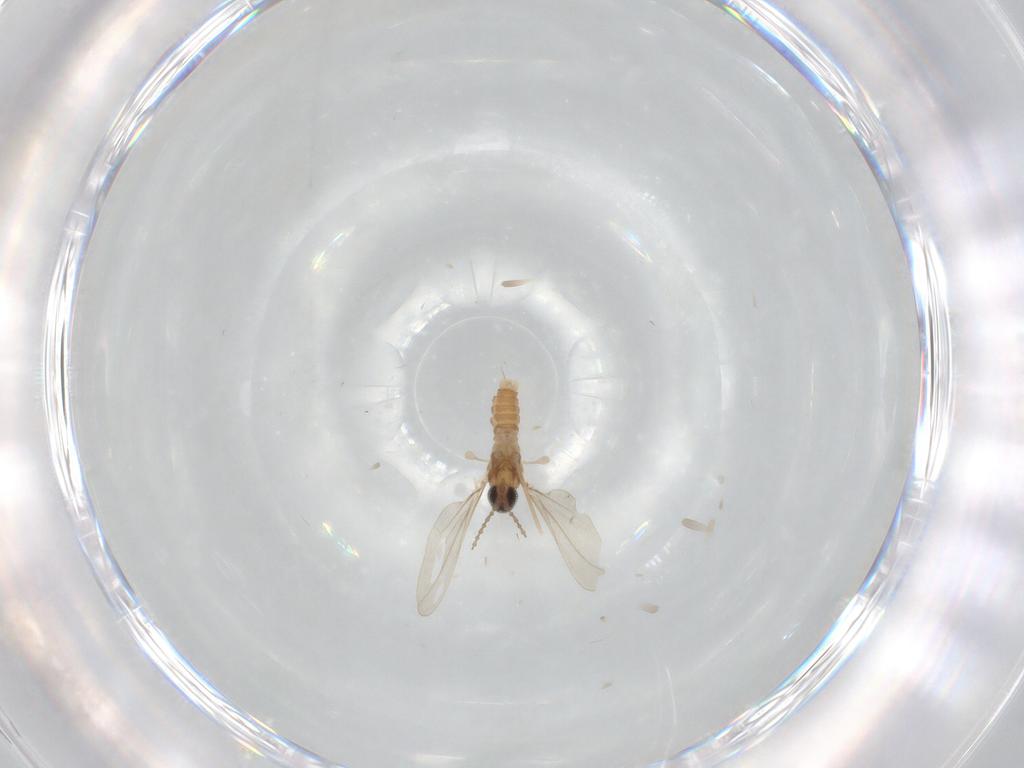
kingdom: Animalia
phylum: Arthropoda
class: Insecta
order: Diptera
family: Cecidomyiidae
